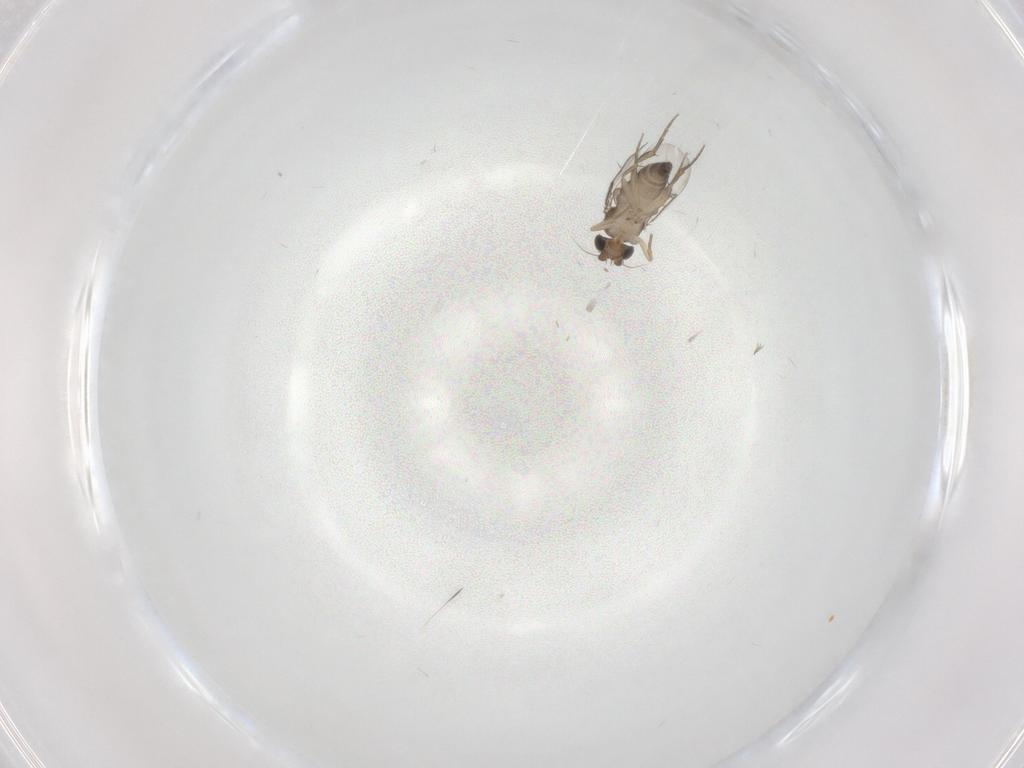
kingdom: Animalia
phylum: Arthropoda
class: Insecta
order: Diptera
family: Phoridae
